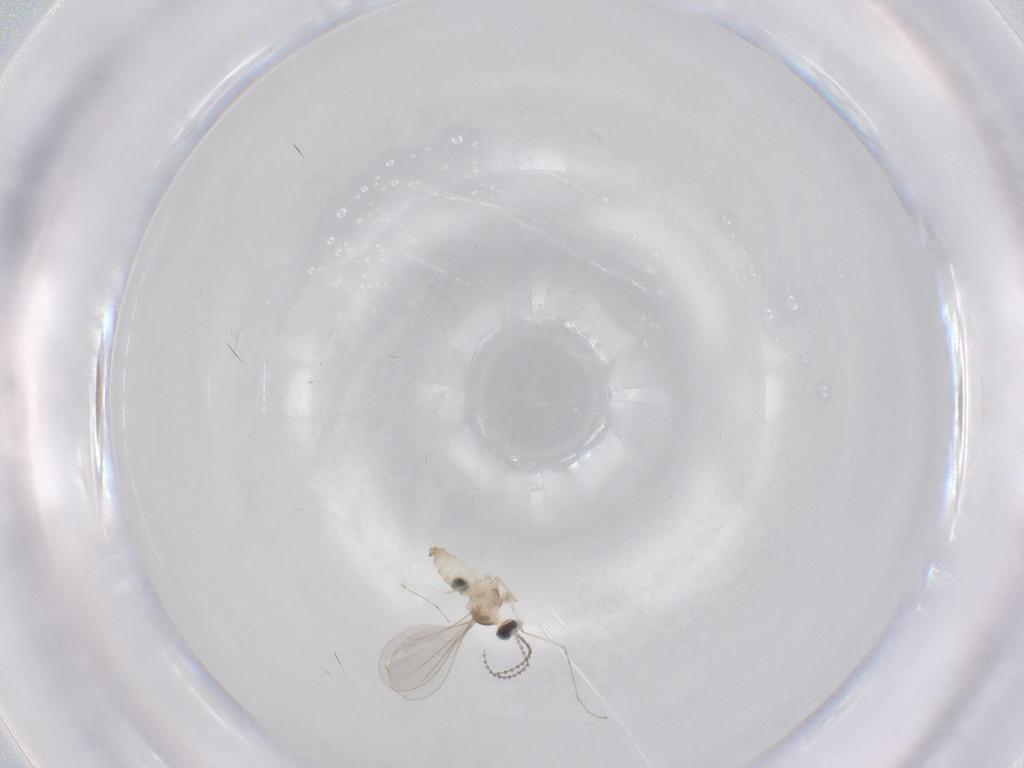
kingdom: Animalia
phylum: Arthropoda
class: Insecta
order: Diptera
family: Cecidomyiidae
